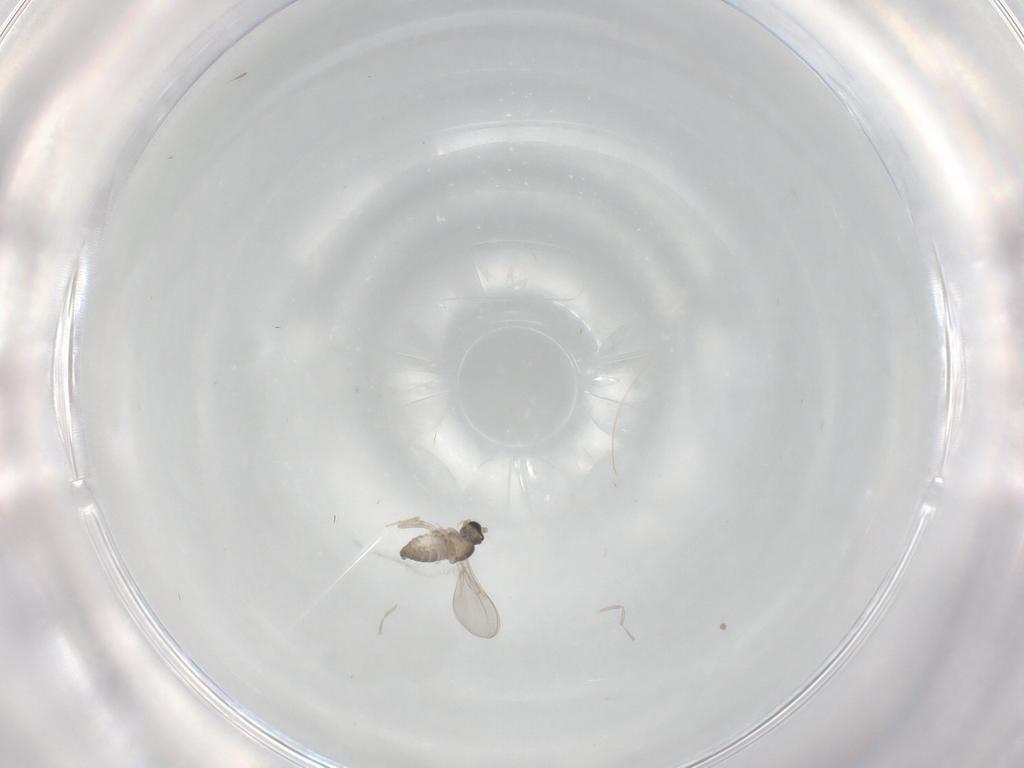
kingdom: Animalia
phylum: Arthropoda
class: Insecta
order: Diptera
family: Cecidomyiidae
